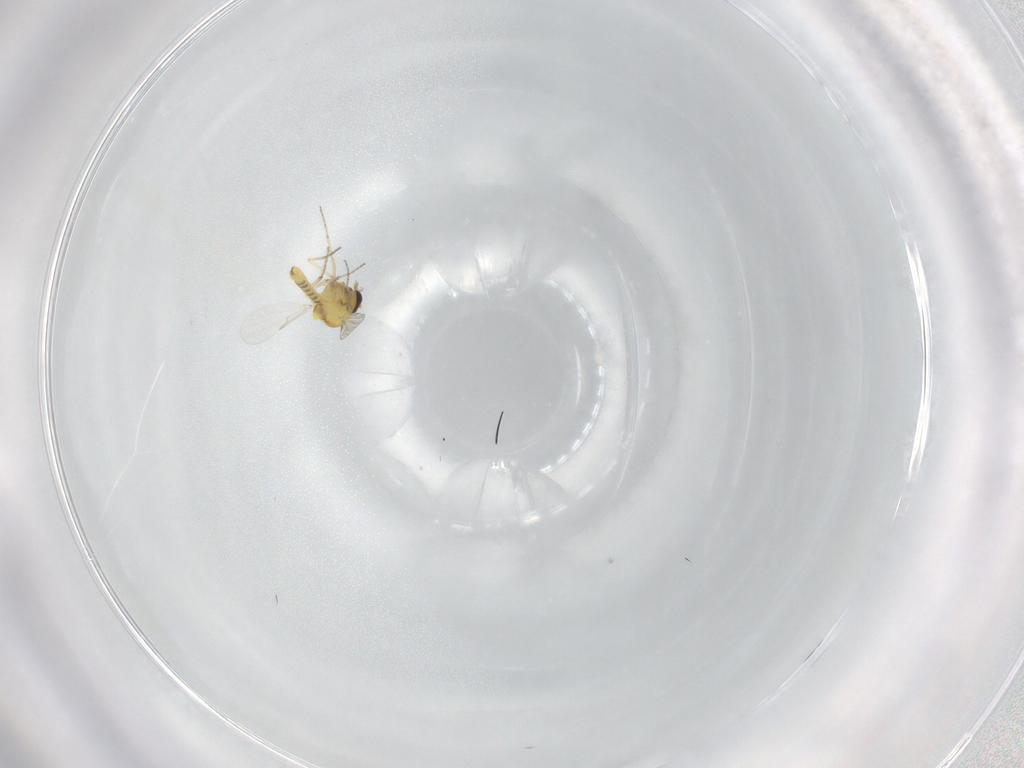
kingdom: Animalia
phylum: Arthropoda
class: Insecta
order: Diptera
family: Ceratopogonidae
